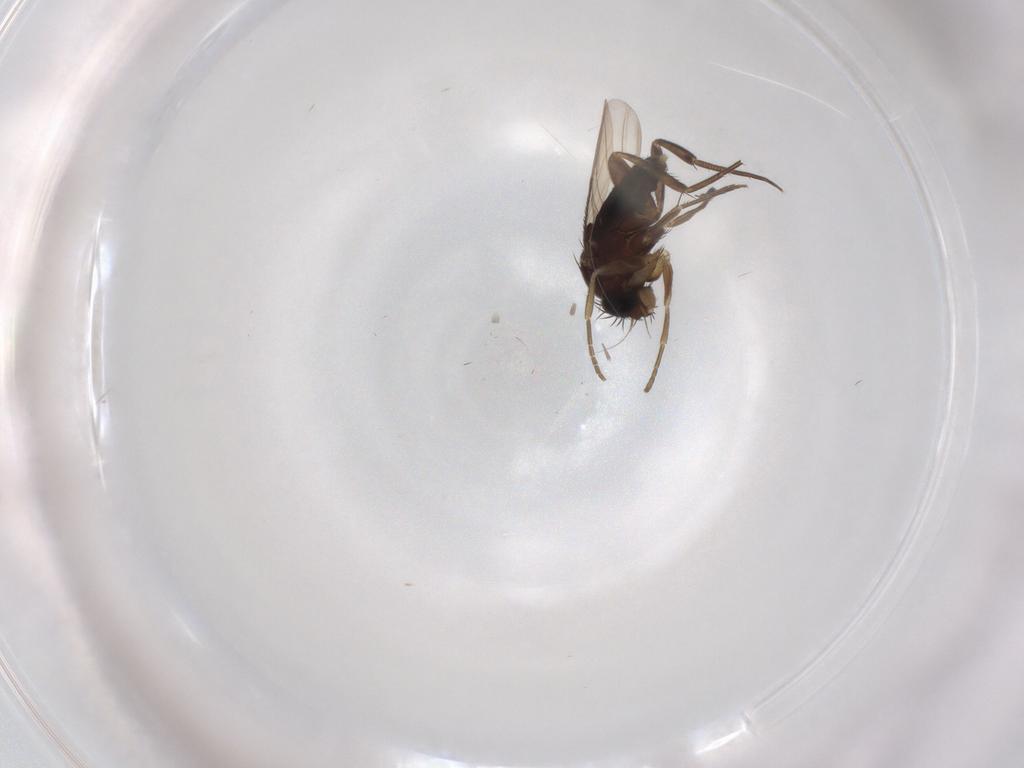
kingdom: Animalia
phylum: Arthropoda
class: Insecta
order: Diptera
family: Phoridae
